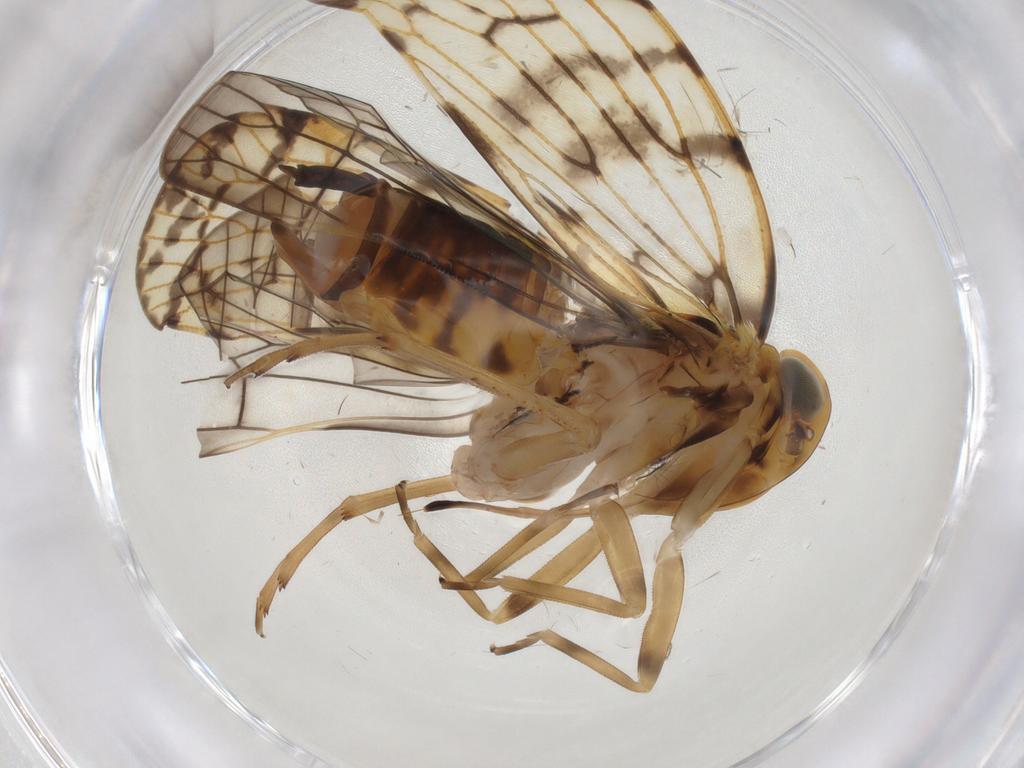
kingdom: Animalia
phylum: Arthropoda
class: Insecta
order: Hemiptera
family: Cixiidae
